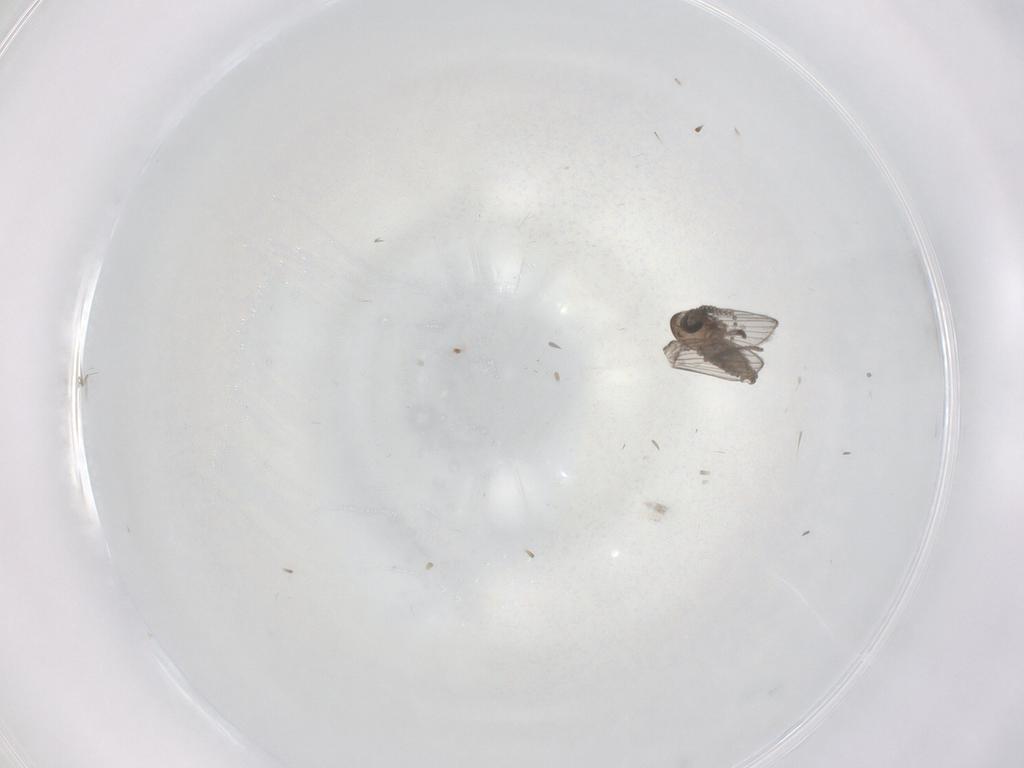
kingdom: Animalia
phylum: Arthropoda
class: Insecta
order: Diptera
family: Psychodidae
